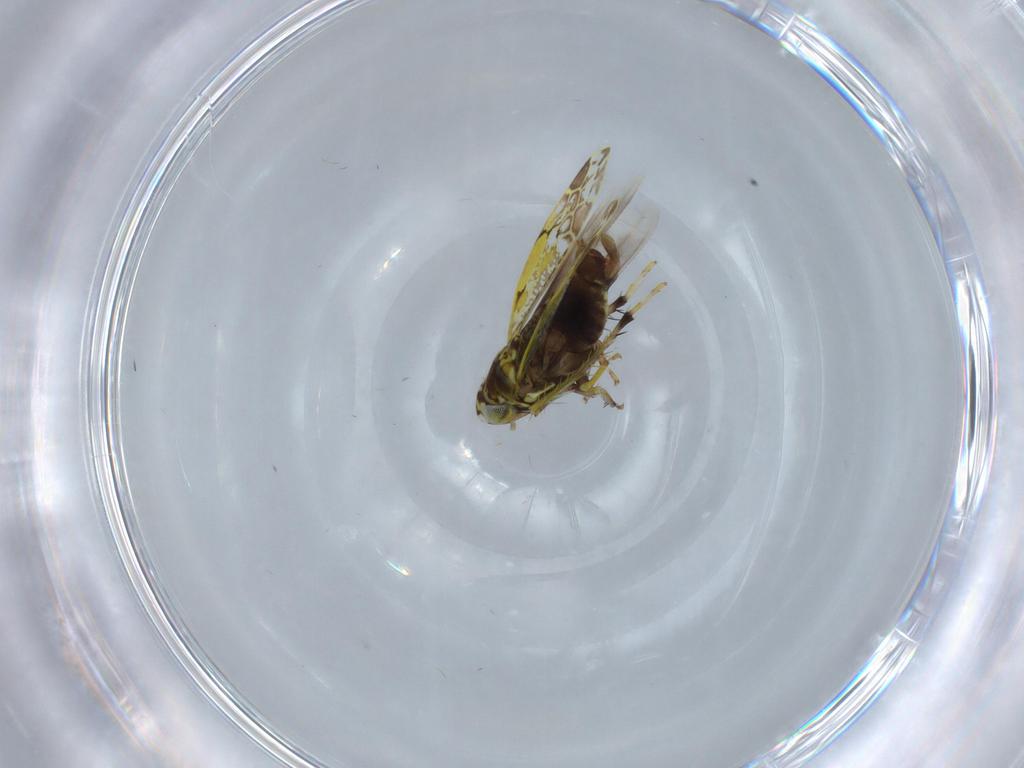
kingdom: Animalia
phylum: Arthropoda
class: Insecta
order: Hemiptera
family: Cicadellidae
